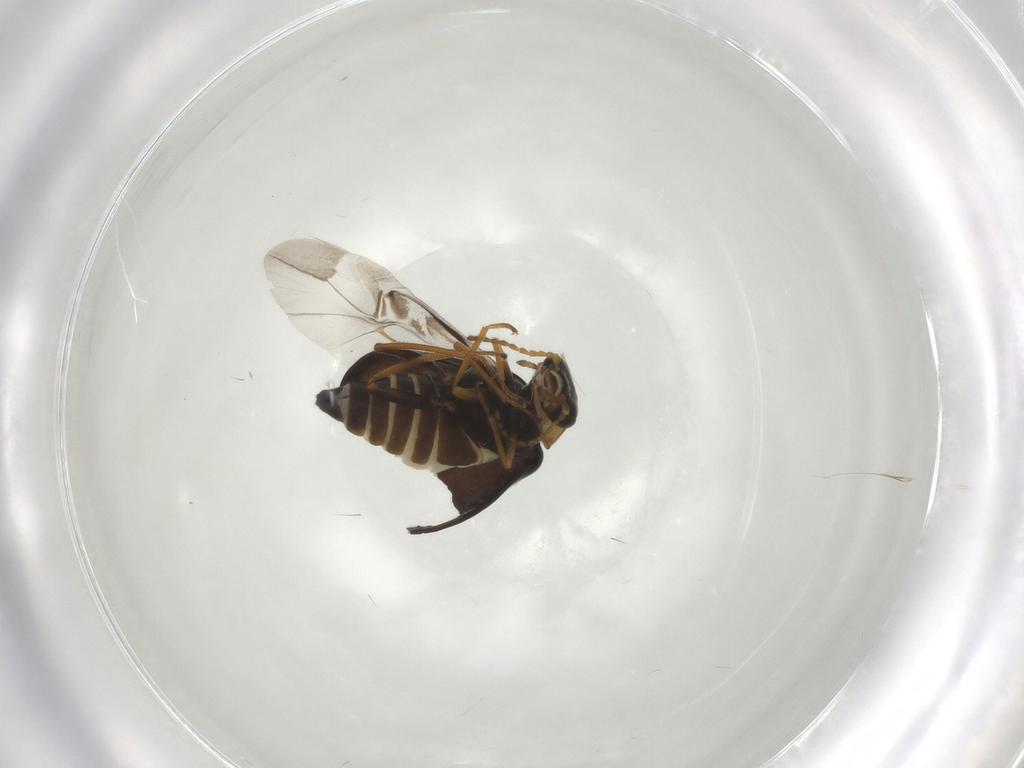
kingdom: Animalia
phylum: Arthropoda
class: Insecta
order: Coleoptera
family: Melyridae
